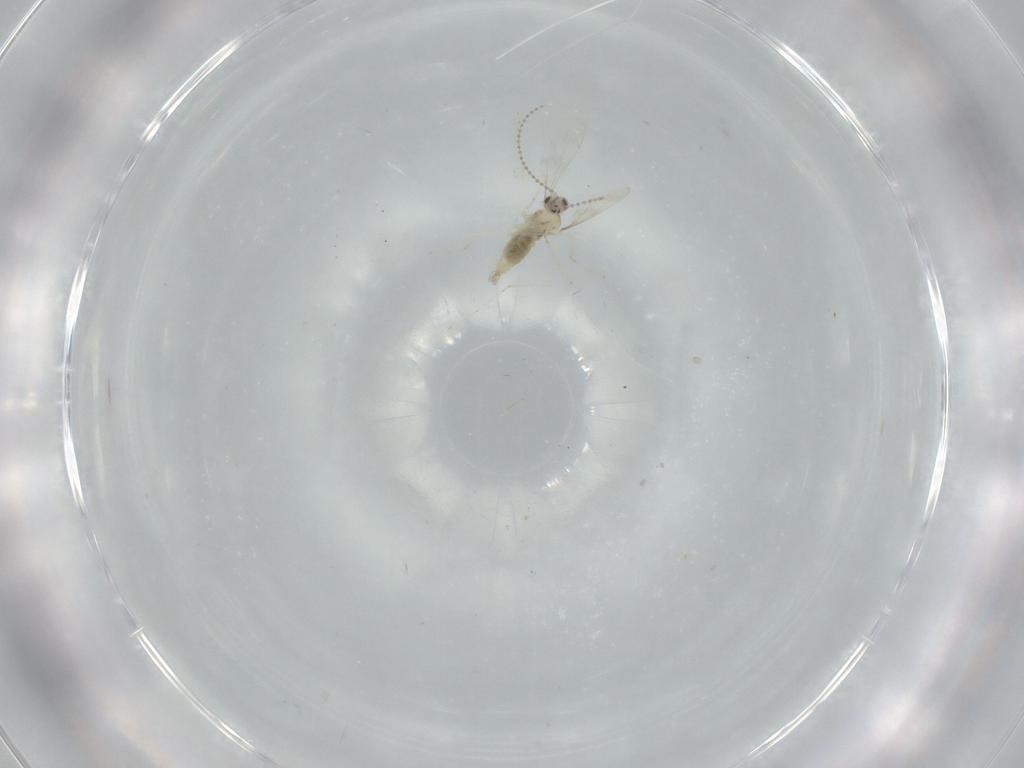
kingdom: Animalia
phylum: Arthropoda
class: Insecta
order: Diptera
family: Cecidomyiidae
